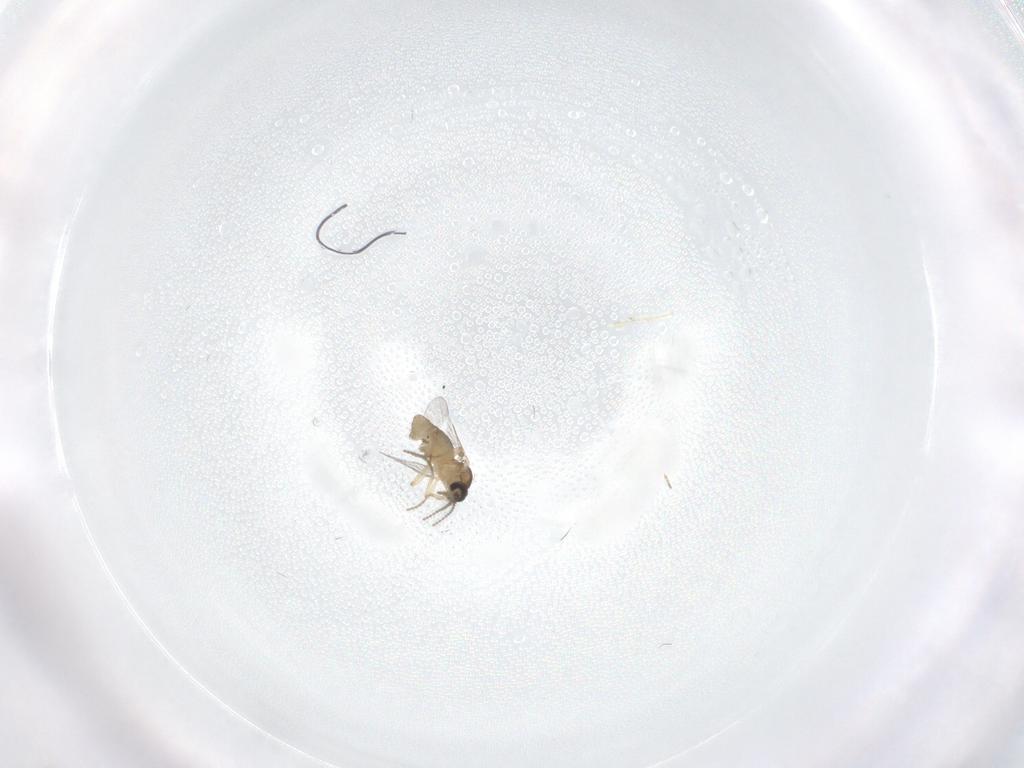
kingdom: Animalia
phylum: Arthropoda
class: Insecta
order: Diptera
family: Ceratopogonidae
